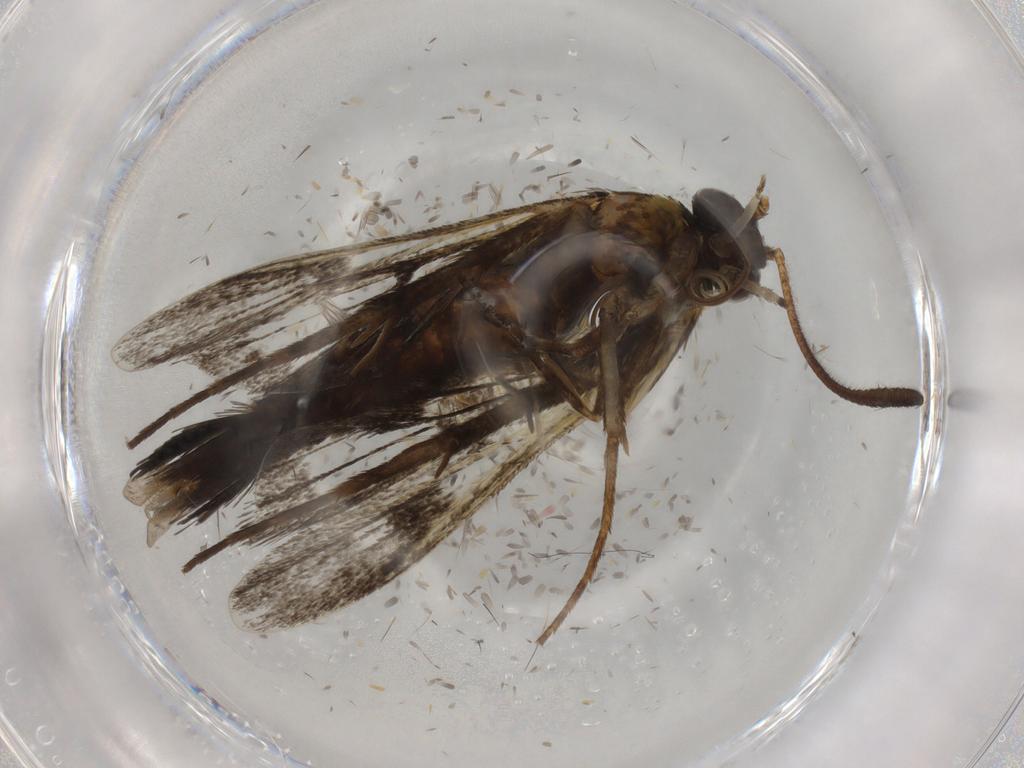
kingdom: Animalia
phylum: Arthropoda
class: Insecta
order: Lepidoptera
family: Sesiidae
